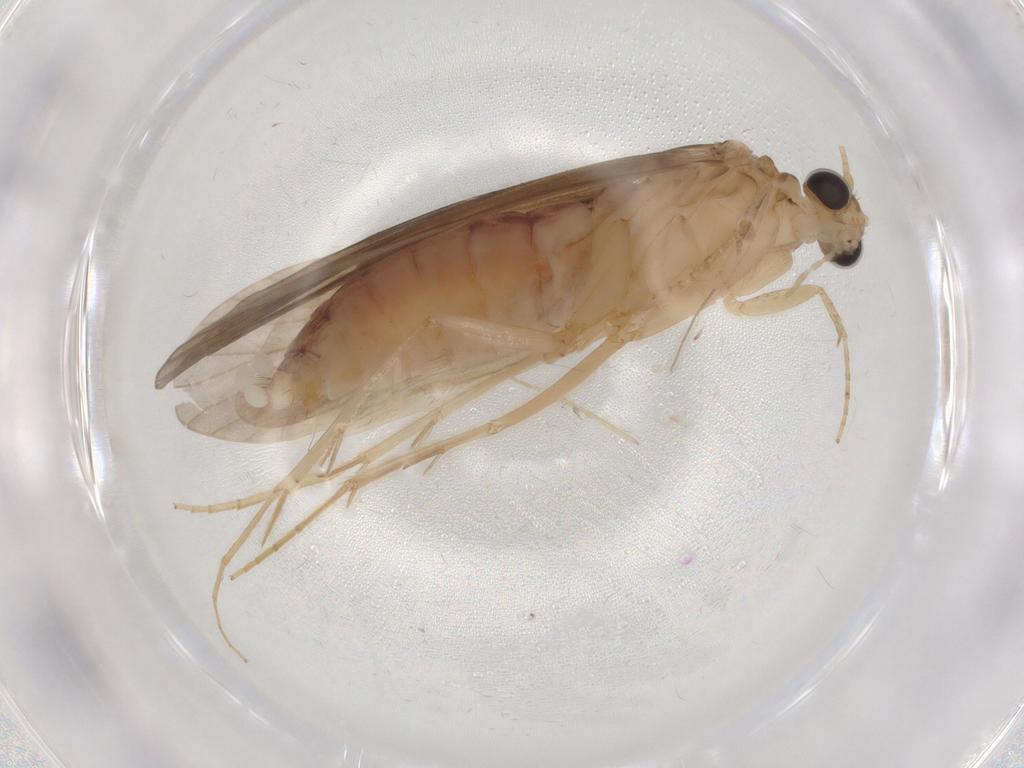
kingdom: Animalia
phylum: Arthropoda
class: Insecta
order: Trichoptera
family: Ecnomidae
